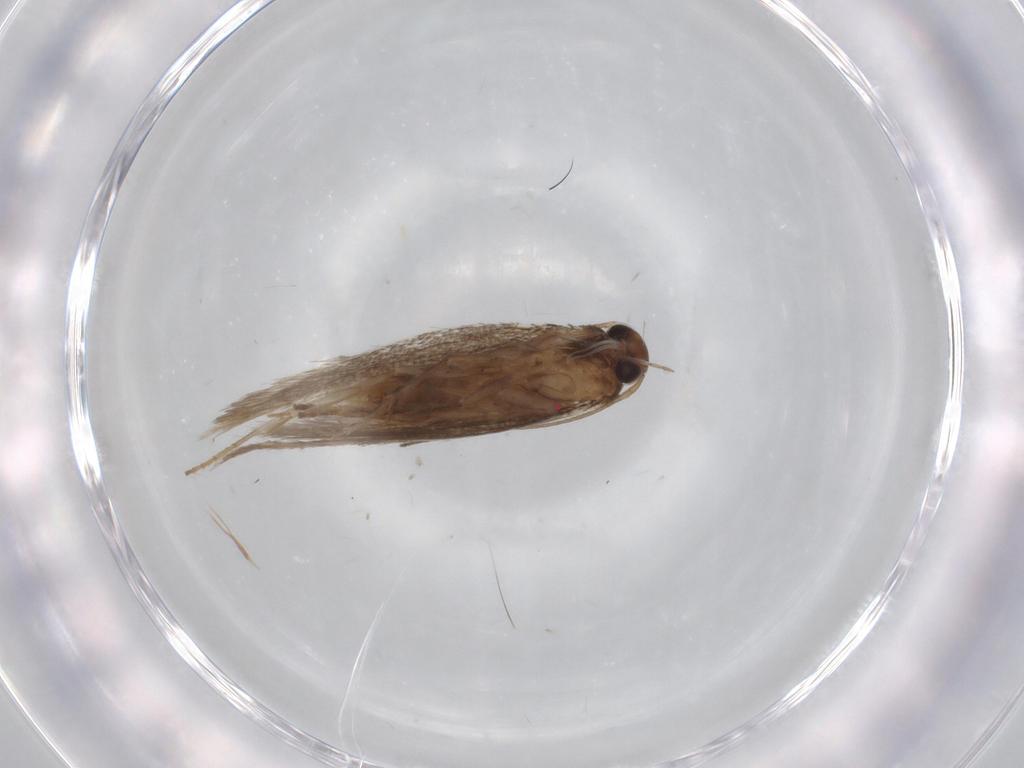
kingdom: Animalia
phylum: Arthropoda
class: Insecta
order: Lepidoptera
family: Elachistidae
